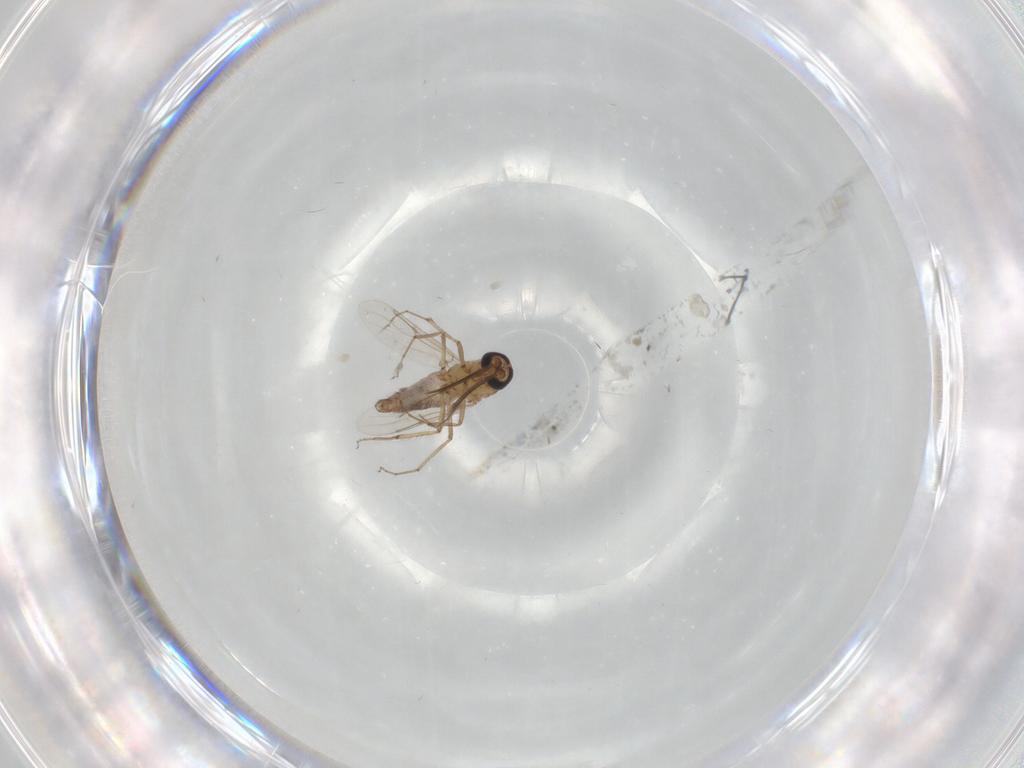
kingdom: Animalia
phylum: Arthropoda
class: Insecta
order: Diptera
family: Ceratopogonidae
